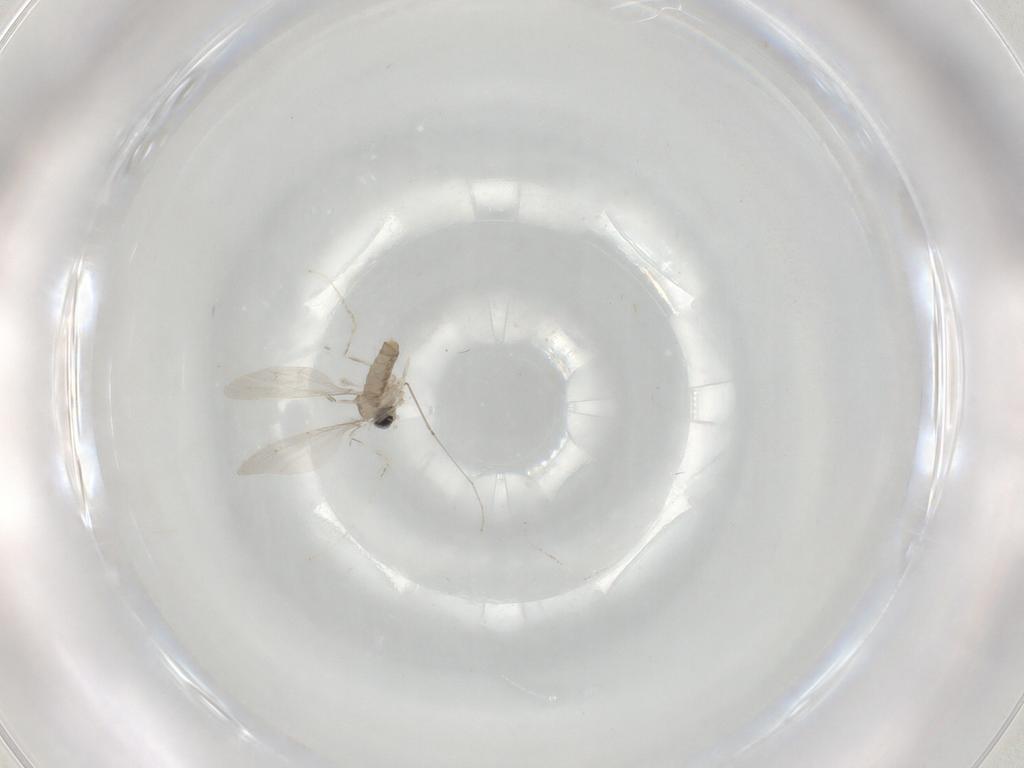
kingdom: Animalia
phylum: Arthropoda
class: Insecta
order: Diptera
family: Cecidomyiidae
